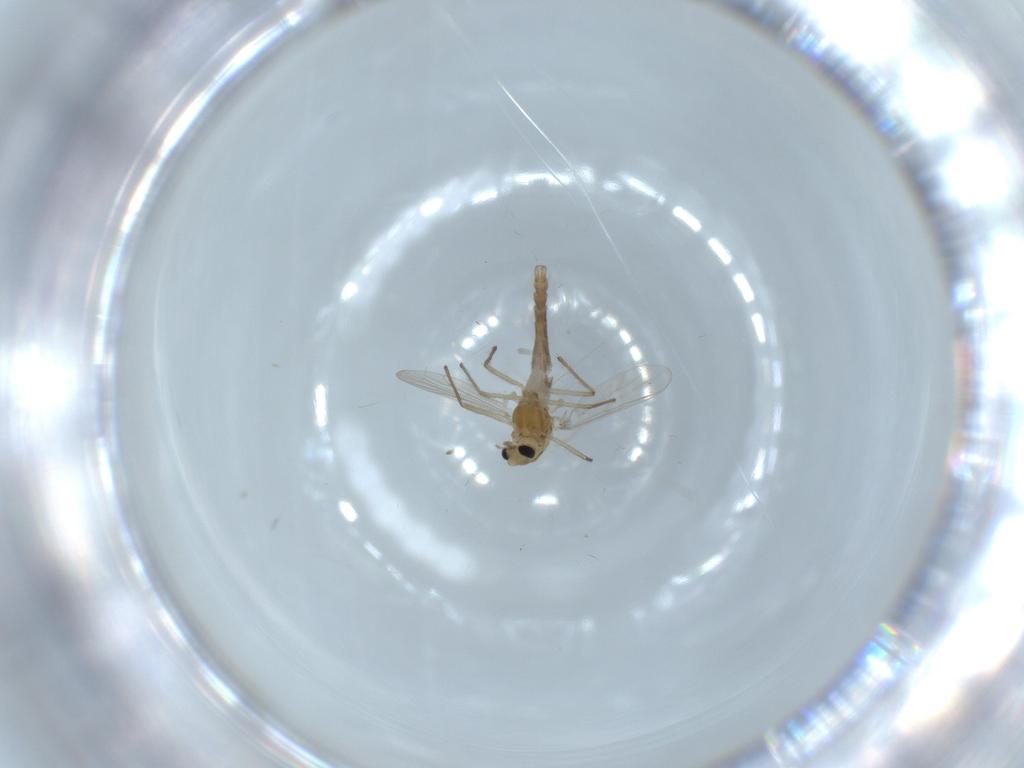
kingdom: Animalia
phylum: Arthropoda
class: Insecta
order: Diptera
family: Chironomidae
